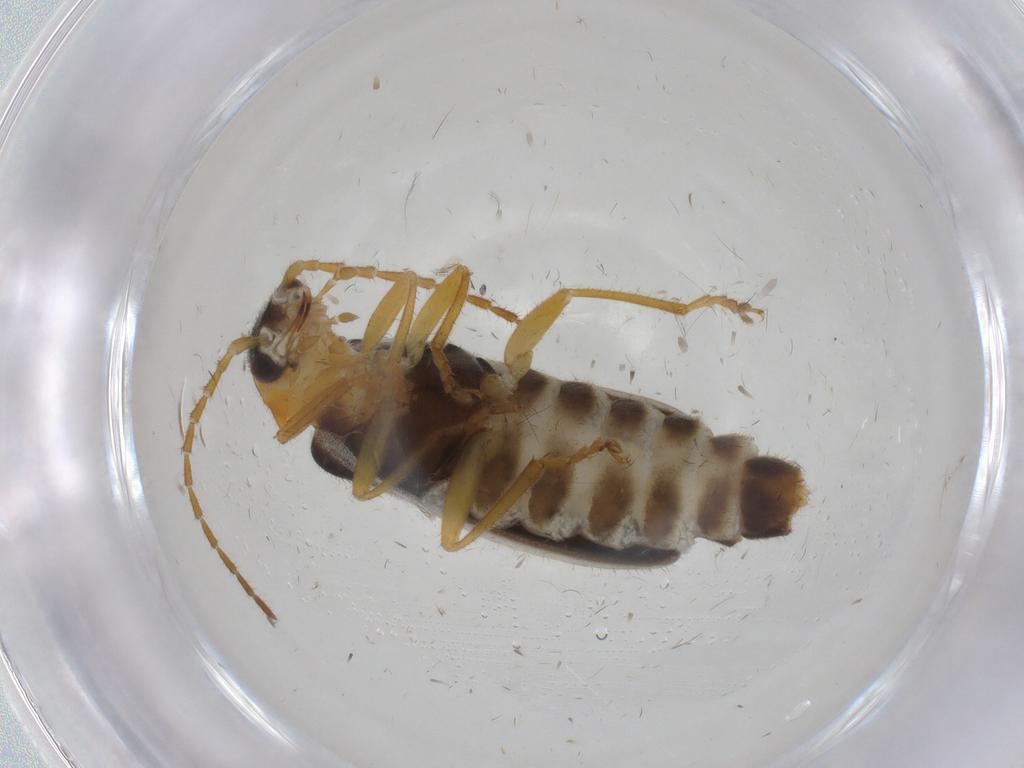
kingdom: Animalia
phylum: Arthropoda
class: Insecta
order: Coleoptera
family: Cantharidae
